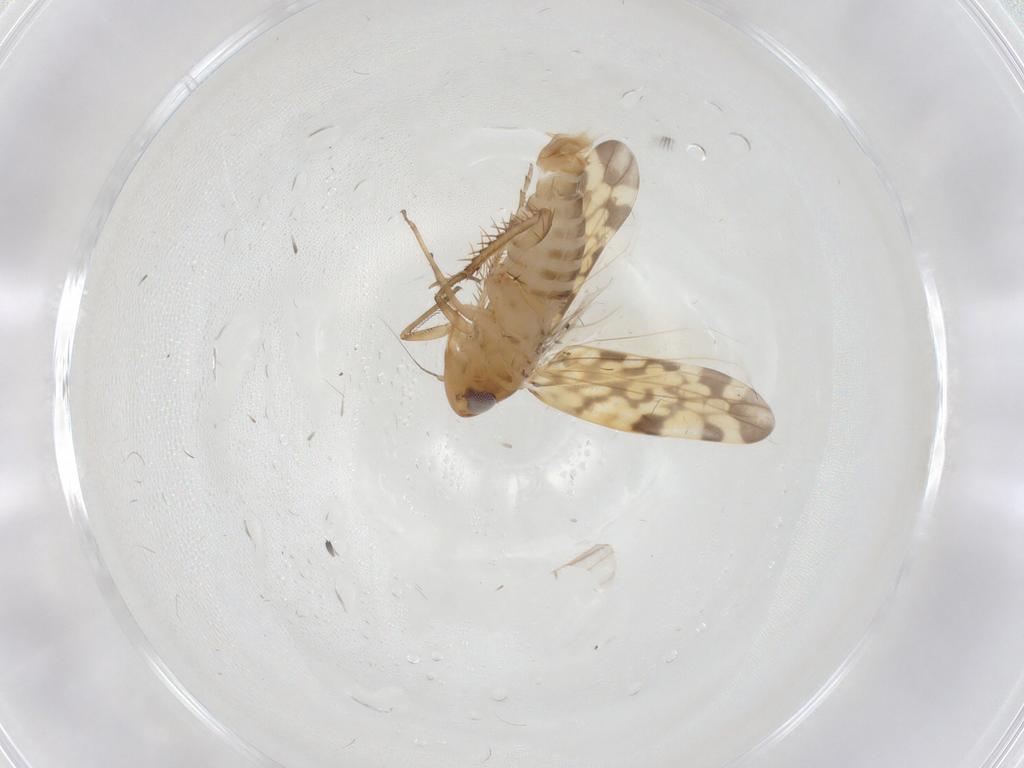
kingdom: Animalia
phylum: Arthropoda
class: Insecta
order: Hemiptera
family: Cicadellidae
